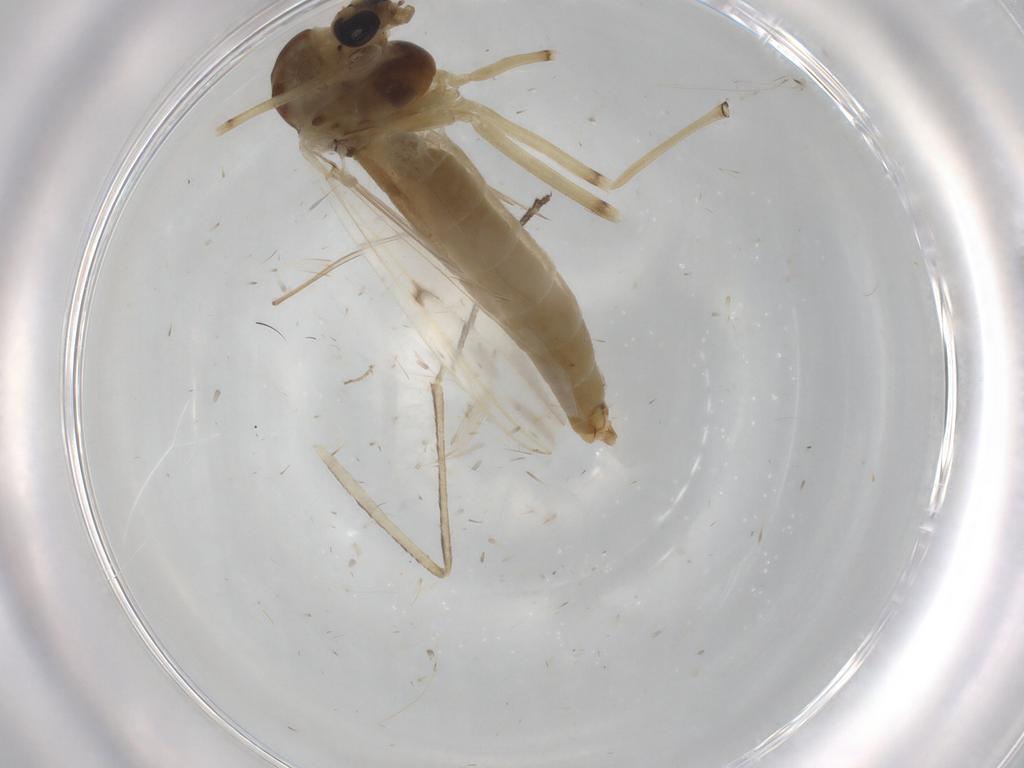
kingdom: Animalia
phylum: Arthropoda
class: Insecta
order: Diptera
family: Chironomidae
